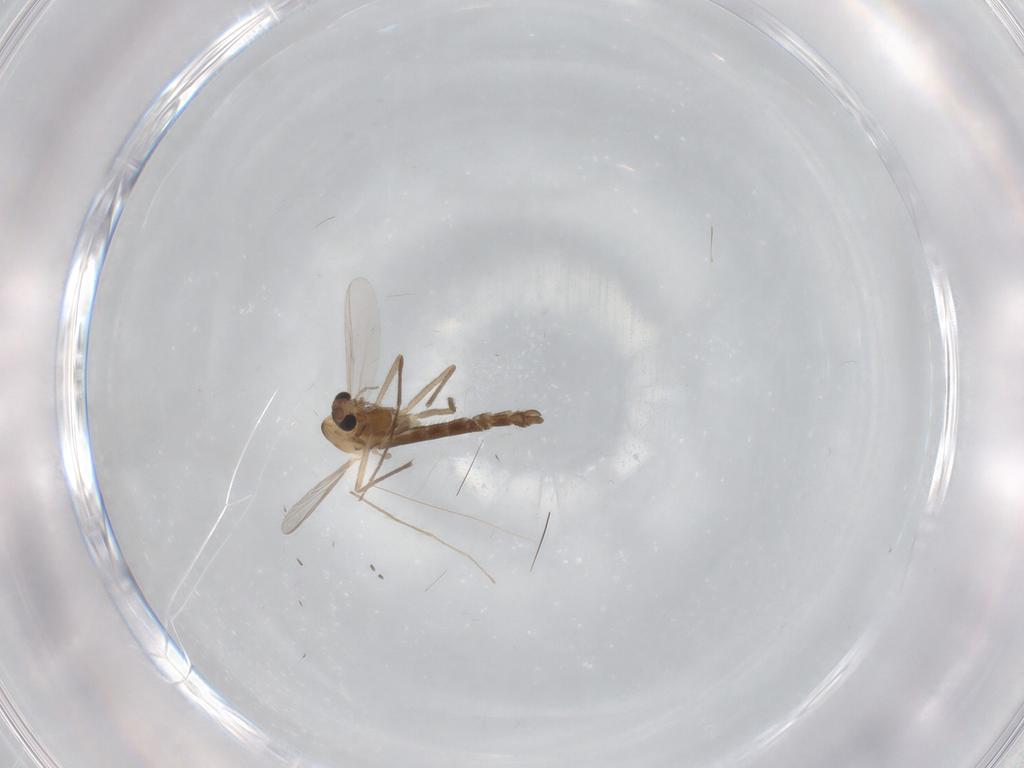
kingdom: Animalia
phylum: Arthropoda
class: Insecta
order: Diptera
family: Chironomidae
